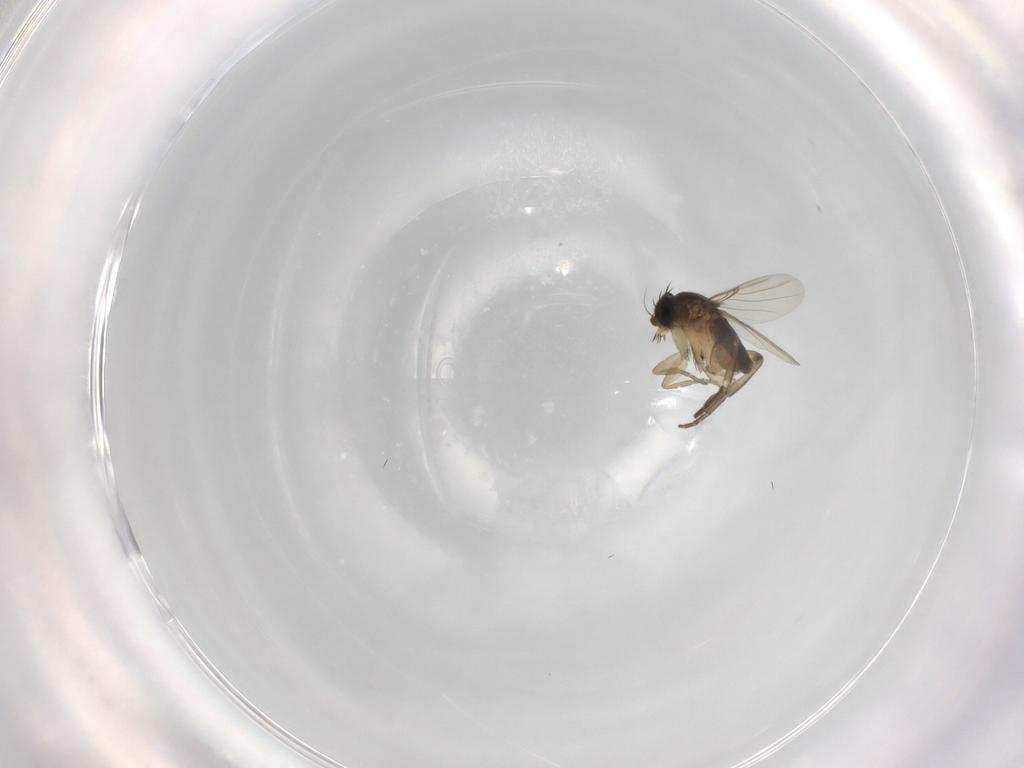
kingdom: Animalia
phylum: Arthropoda
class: Insecta
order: Diptera
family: Phoridae
